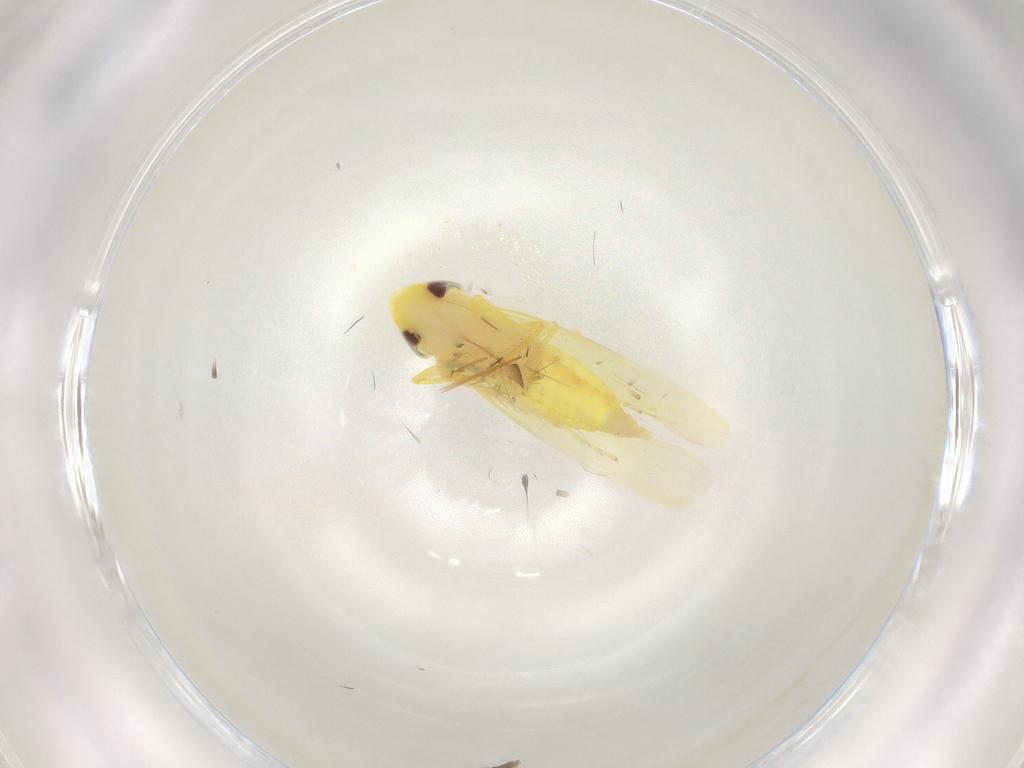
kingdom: Animalia
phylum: Arthropoda
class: Insecta
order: Hemiptera
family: Cicadellidae
